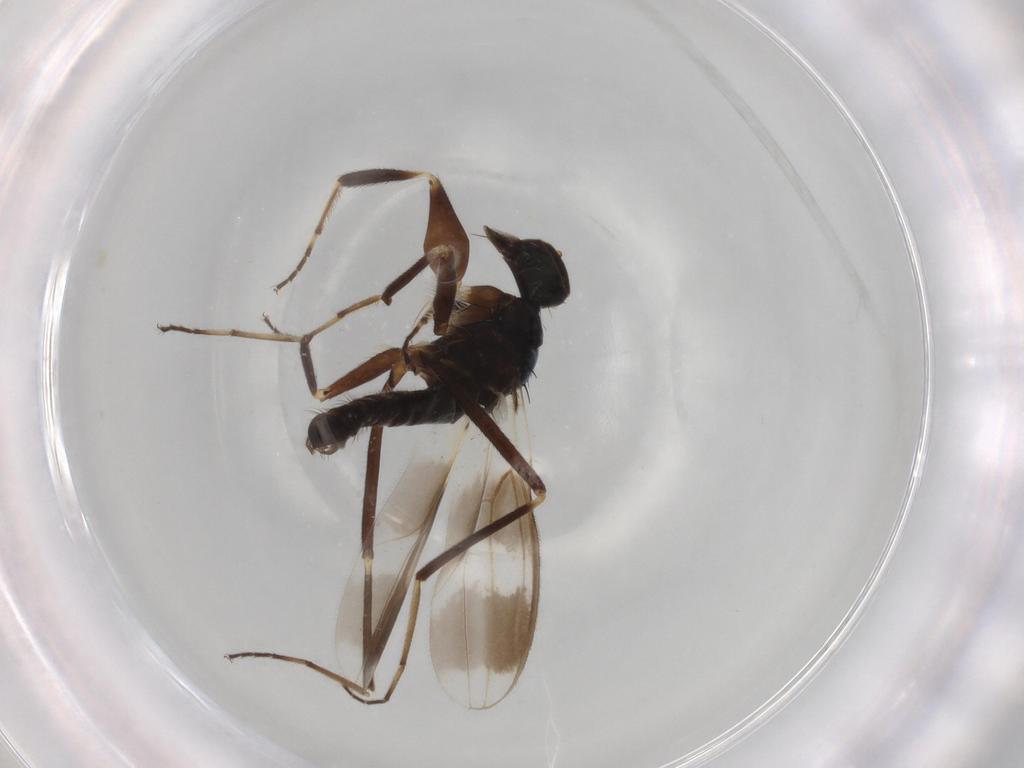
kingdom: Animalia
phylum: Arthropoda
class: Insecta
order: Diptera
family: Hybotidae
